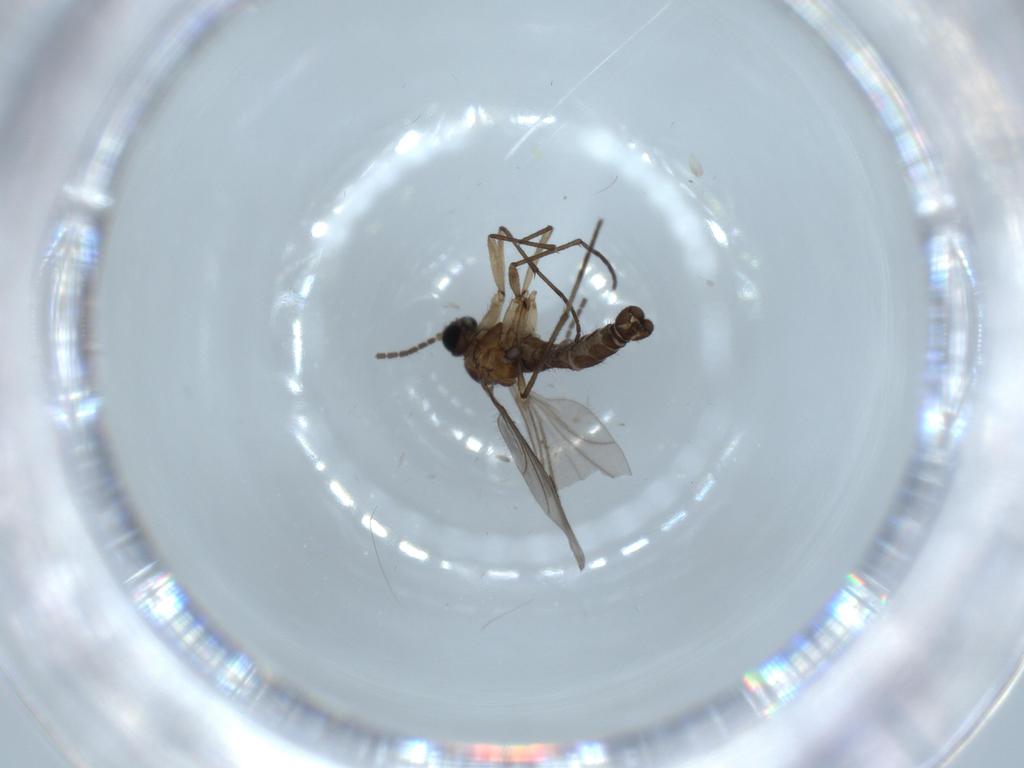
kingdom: Animalia
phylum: Arthropoda
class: Insecta
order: Diptera
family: Sciaridae
